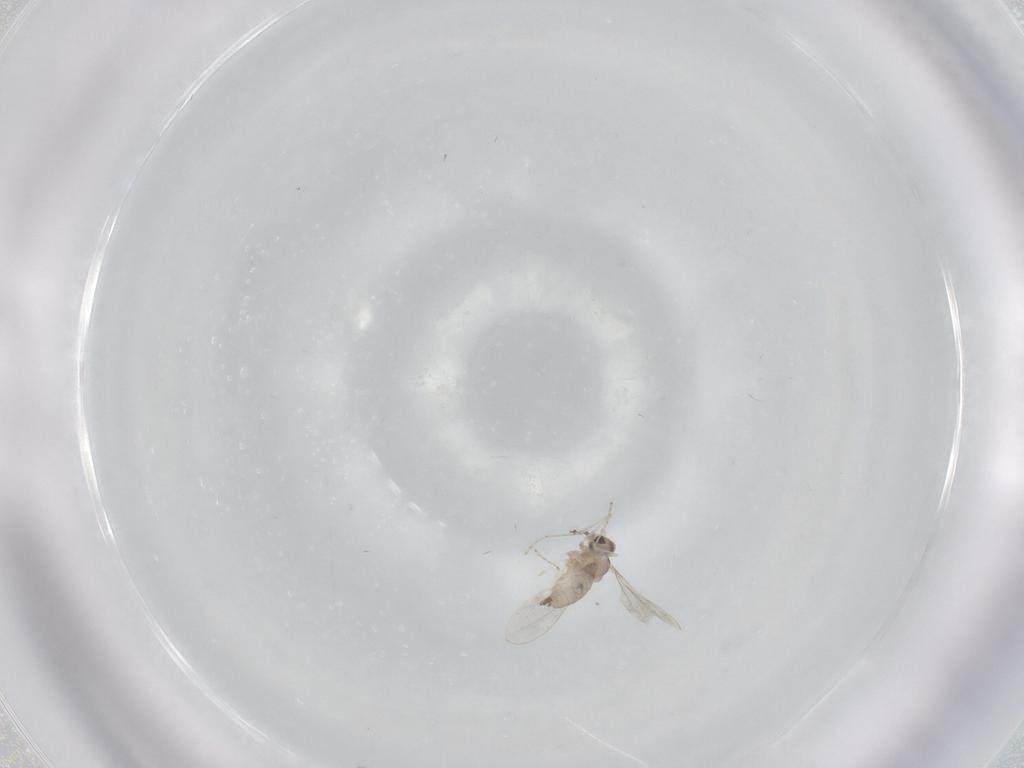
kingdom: Animalia
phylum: Arthropoda
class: Insecta
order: Diptera
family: Cecidomyiidae
